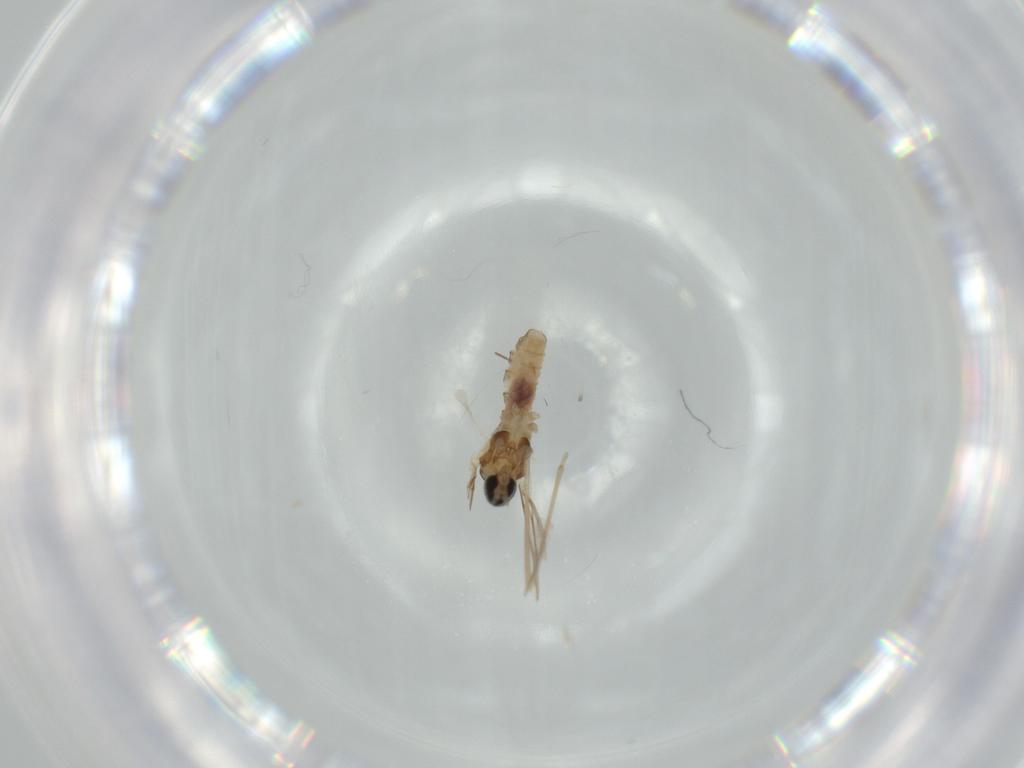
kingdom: Animalia
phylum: Arthropoda
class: Insecta
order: Diptera
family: Cecidomyiidae
